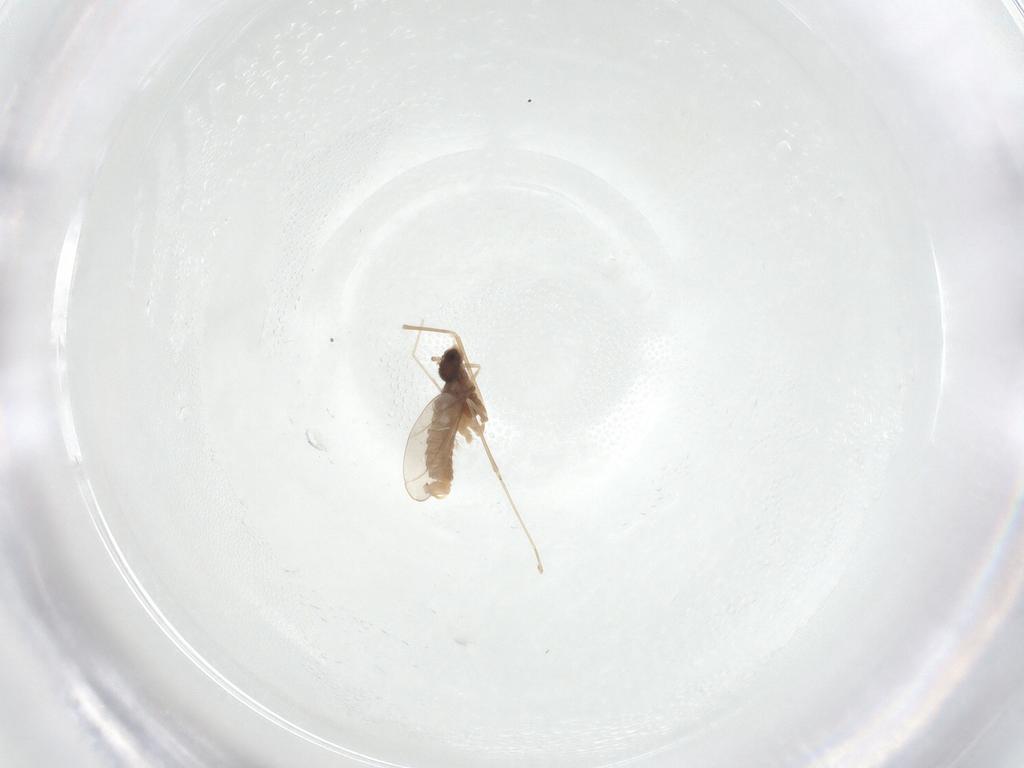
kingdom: Animalia
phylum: Arthropoda
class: Insecta
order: Diptera
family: Cecidomyiidae
